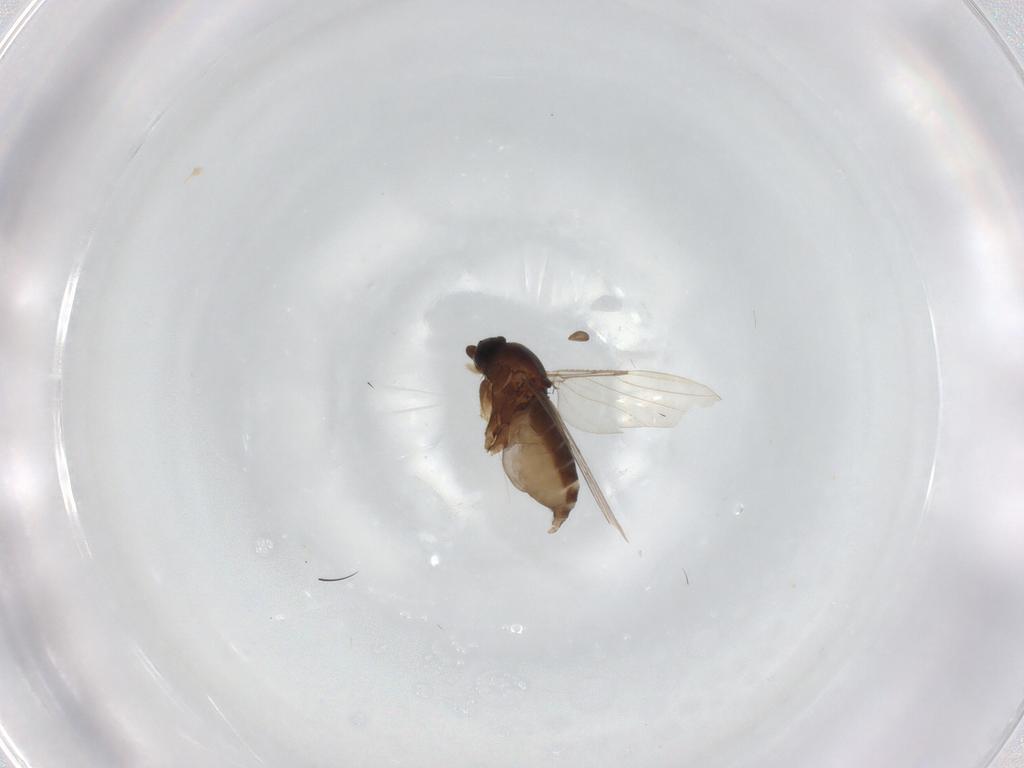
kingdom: Animalia
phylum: Arthropoda
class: Insecta
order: Diptera
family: Phoridae
